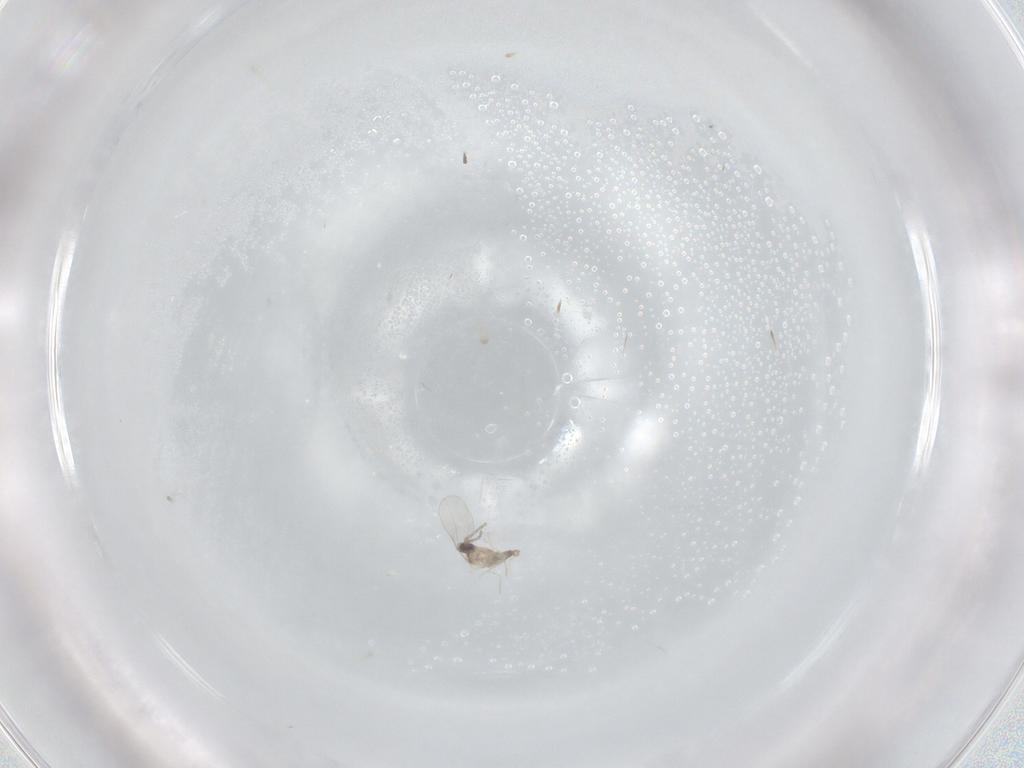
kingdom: Animalia
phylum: Arthropoda
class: Insecta
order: Diptera
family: Cecidomyiidae
